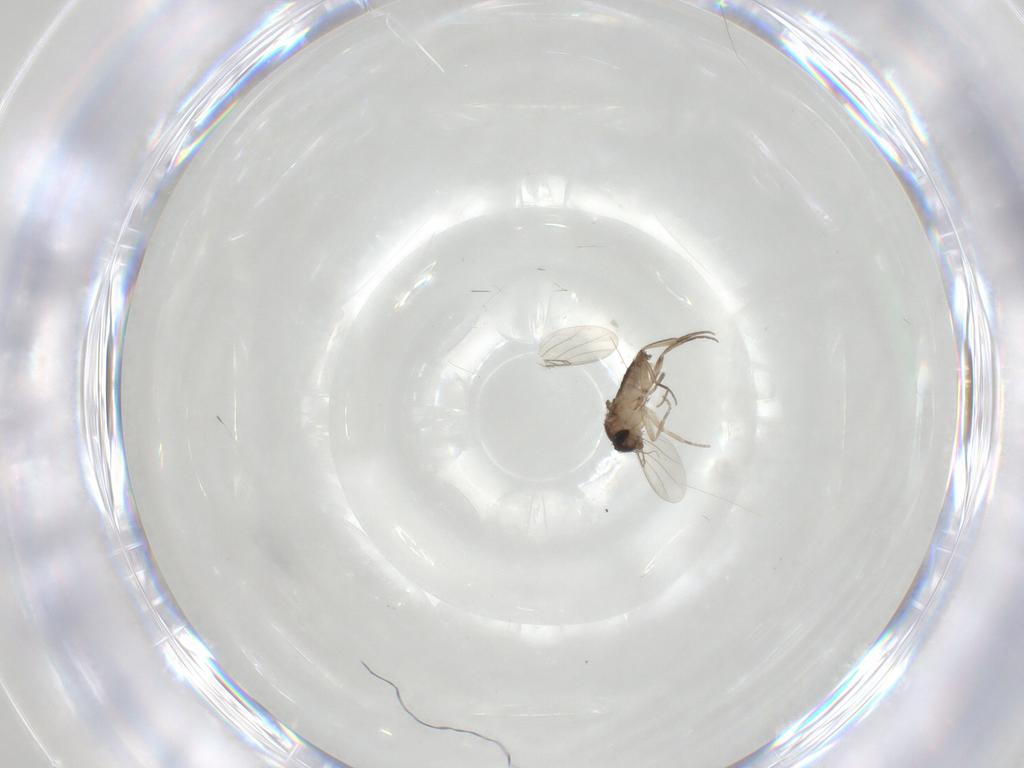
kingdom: Animalia
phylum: Arthropoda
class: Insecta
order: Diptera
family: Phoridae
